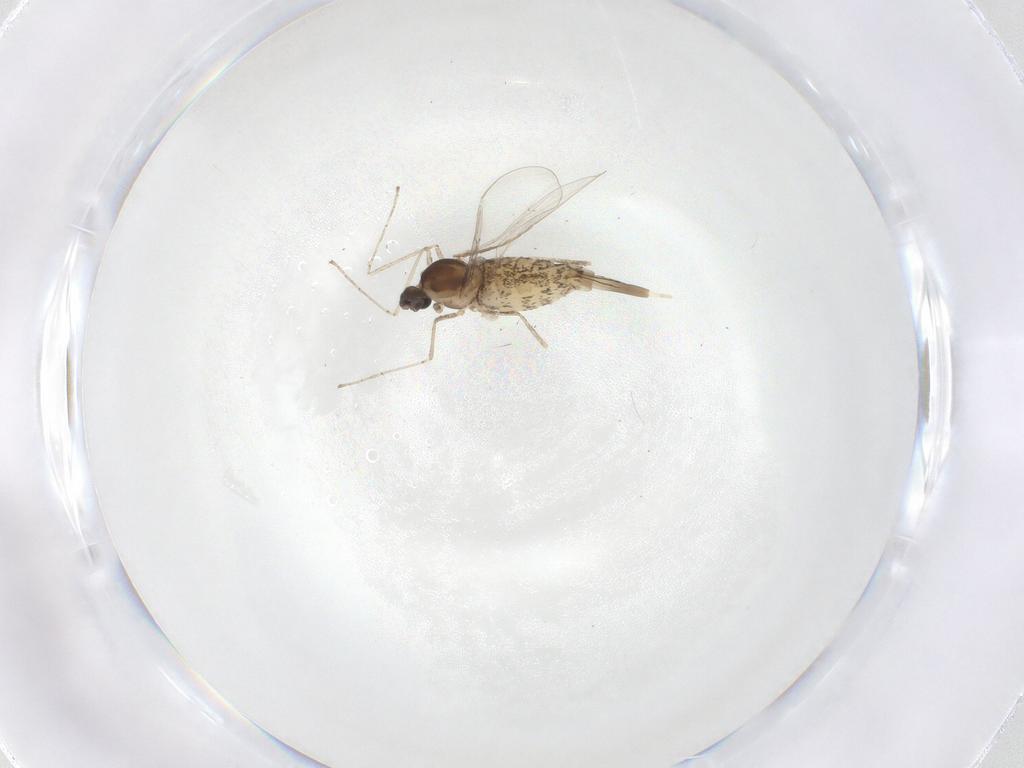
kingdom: Animalia
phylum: Arthropoda
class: Insecta
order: Diptera
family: Cecidomyiidae
